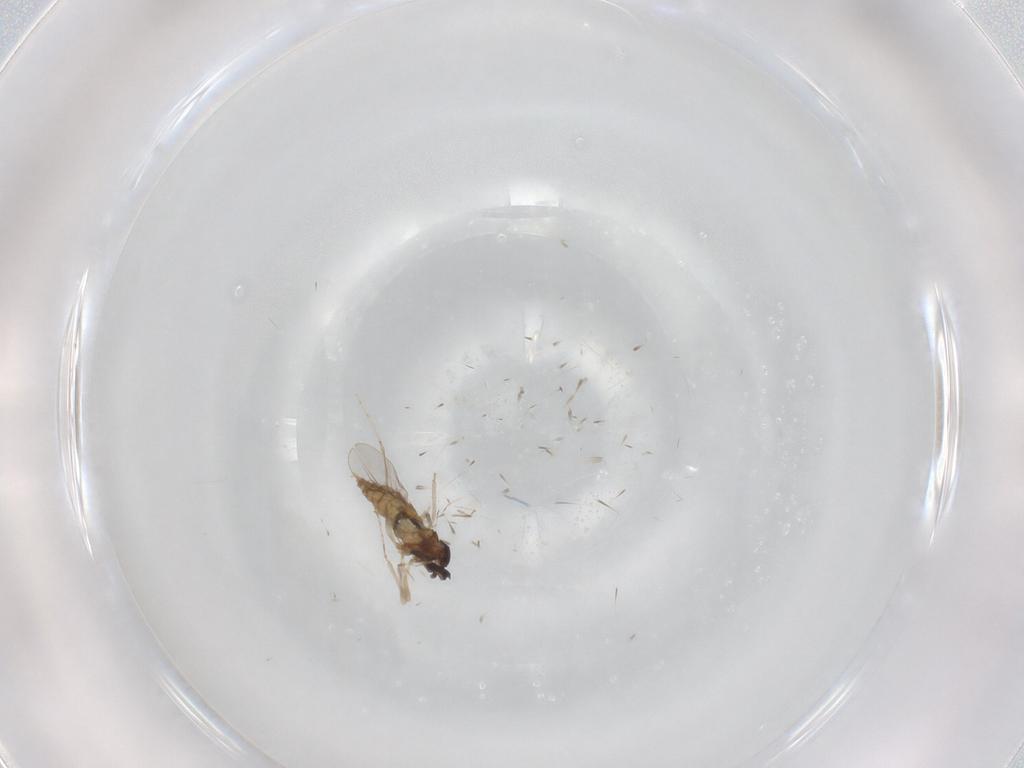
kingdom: Animalia
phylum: Arthropoda
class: Insecta
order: Diptera
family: Cecidomyiidae
